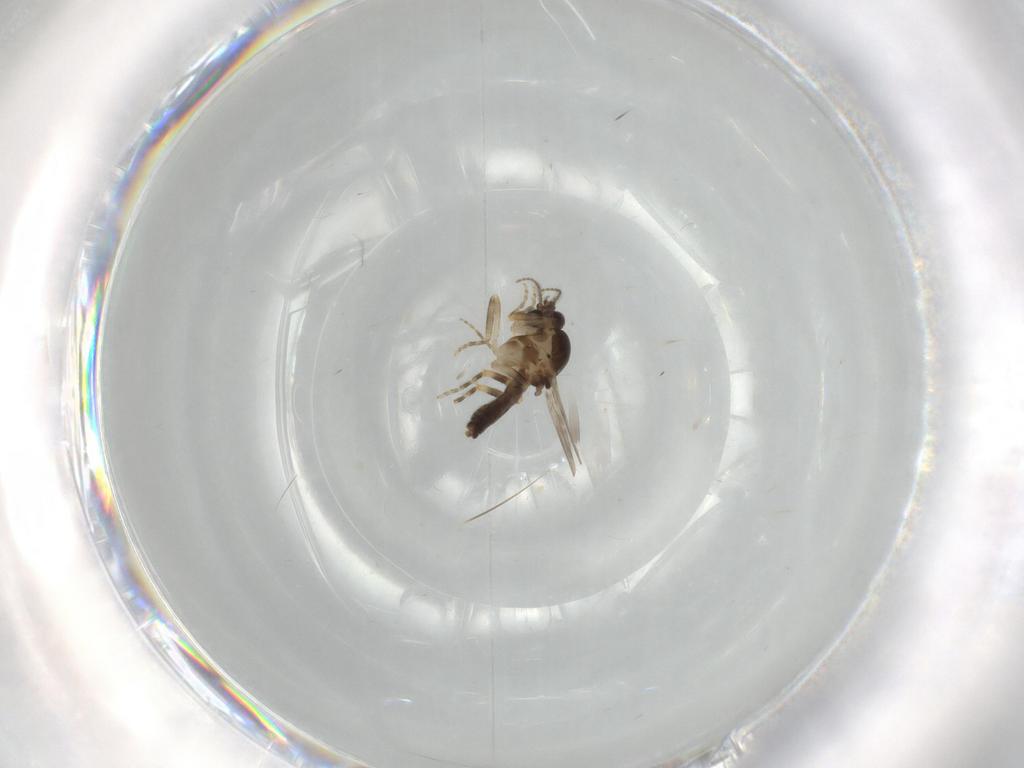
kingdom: Animalia
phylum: Arthropoda
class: Insecta
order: Diptera
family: Ceratopogonidae
